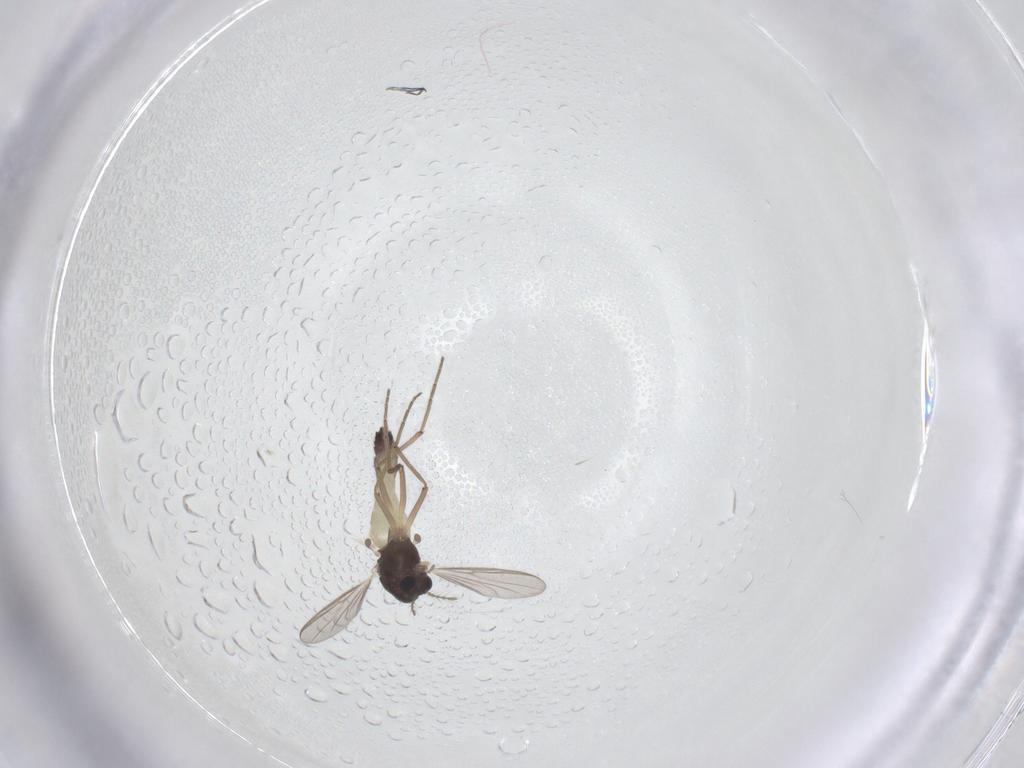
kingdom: Animalia
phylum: Arthropoda
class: Insecta
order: Diptera
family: Chironomidae
